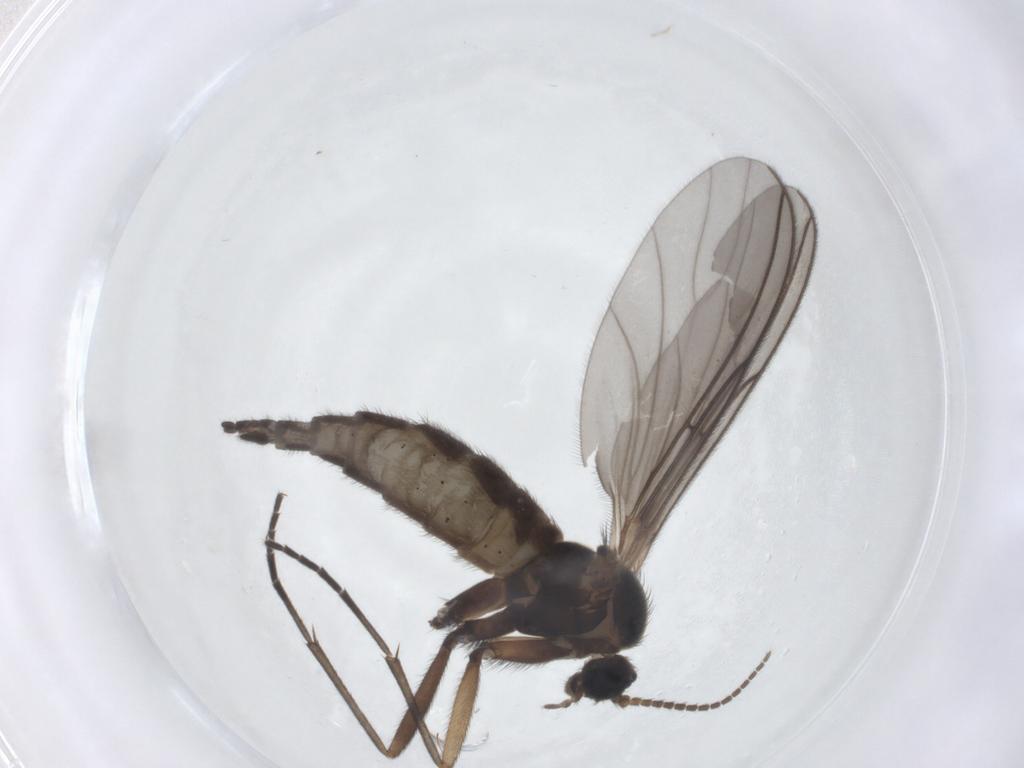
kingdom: Animalia
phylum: Arthropoda
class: Insecta
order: Diptera
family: Sciaridae
